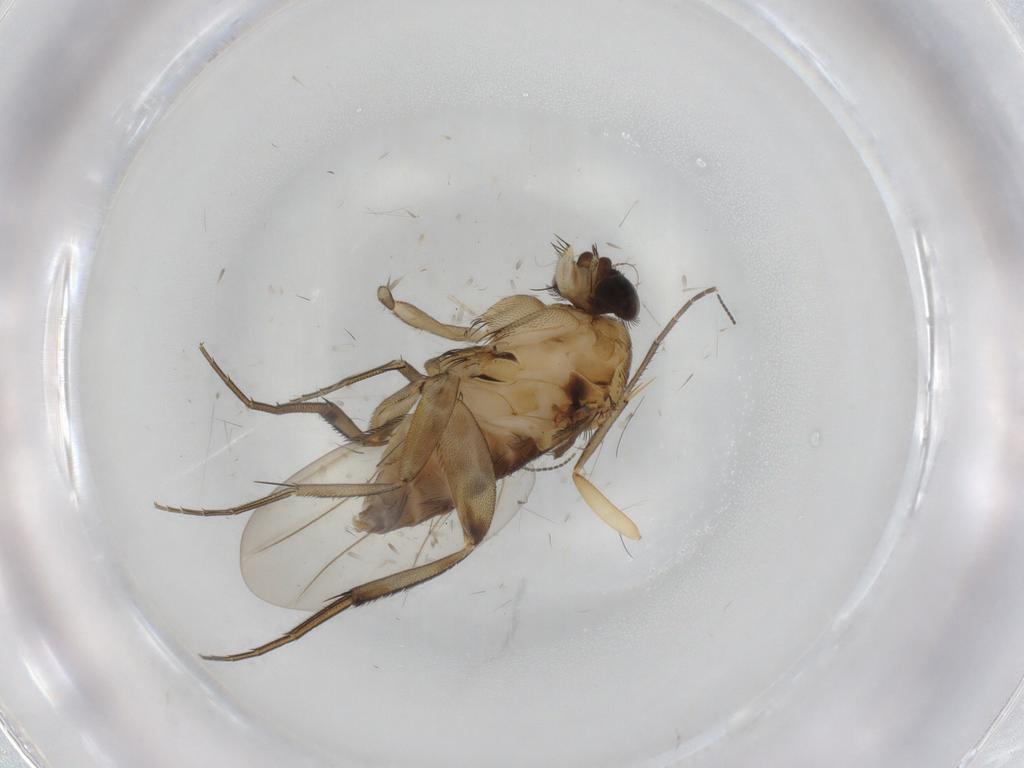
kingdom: Animalia
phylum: Arthropoda
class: Insecta
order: Diptera
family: Phoridae
